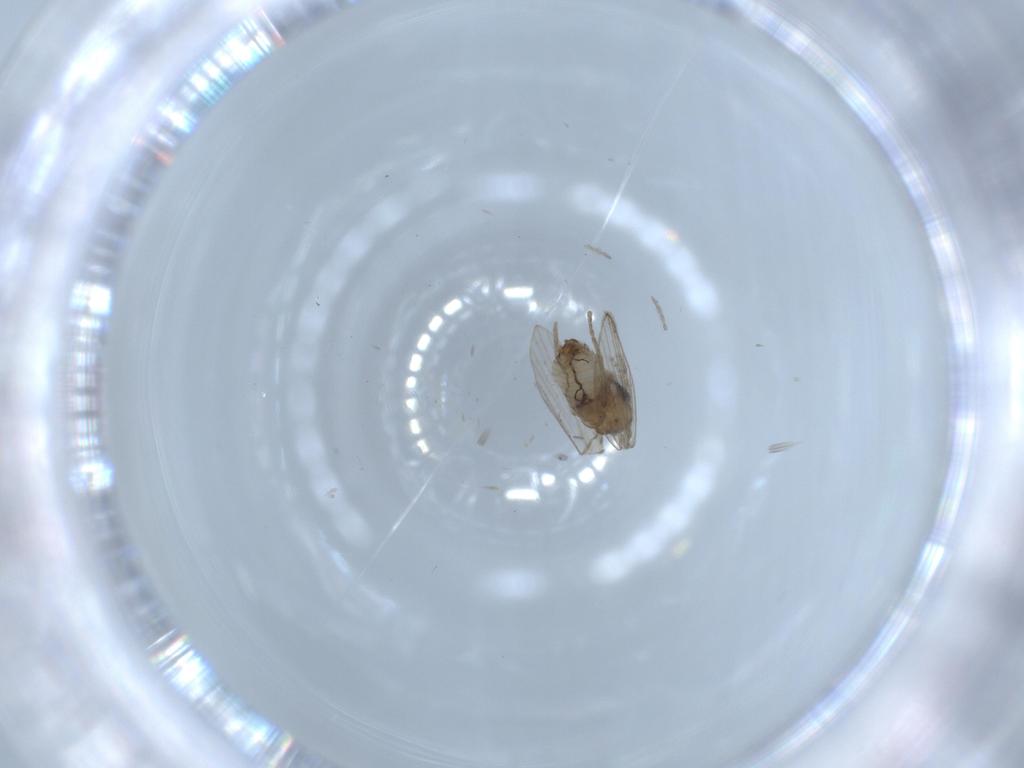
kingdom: Animalia
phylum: Arthropoda
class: Insecta
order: Diptera
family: Psychodidae
